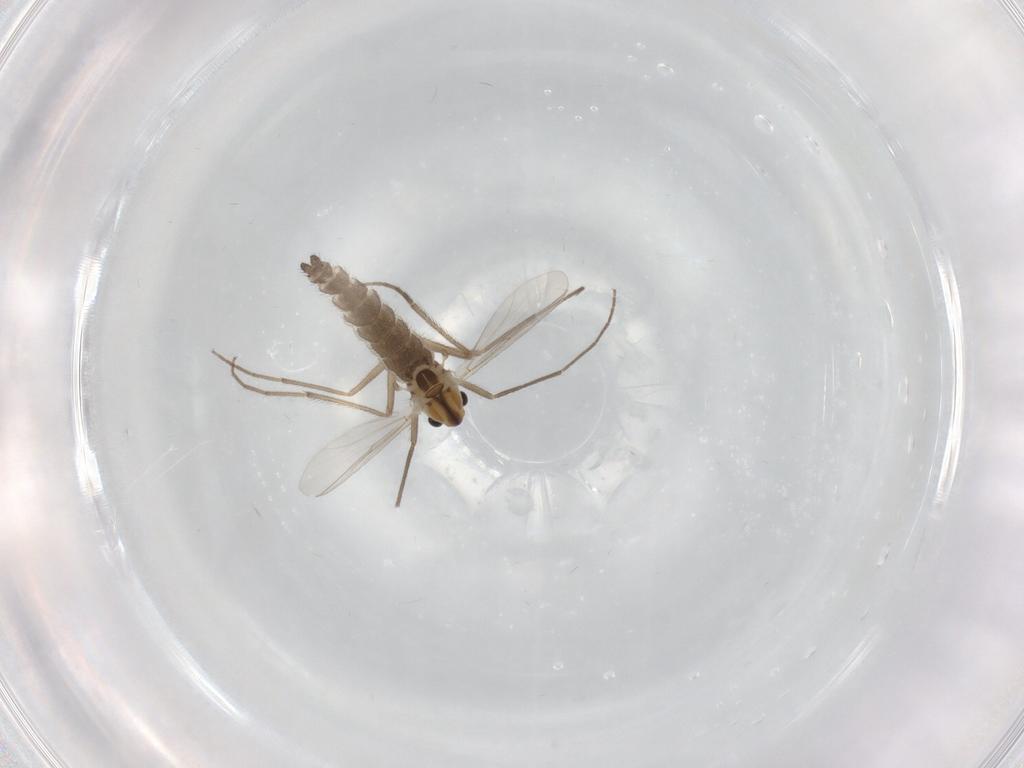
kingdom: Animalia
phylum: Arthropoda
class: Insecta
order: Diptera
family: Chironomidae
